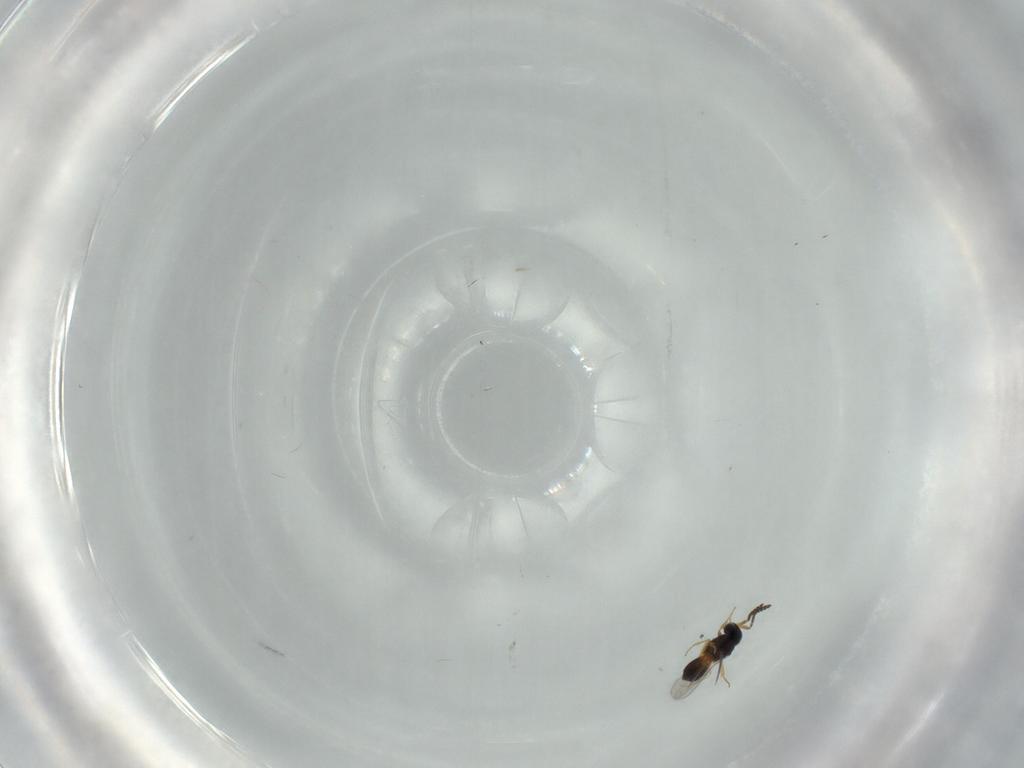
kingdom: Animalia
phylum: Arthropoda
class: Insecta
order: Hymenoptera
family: Scelionidae
